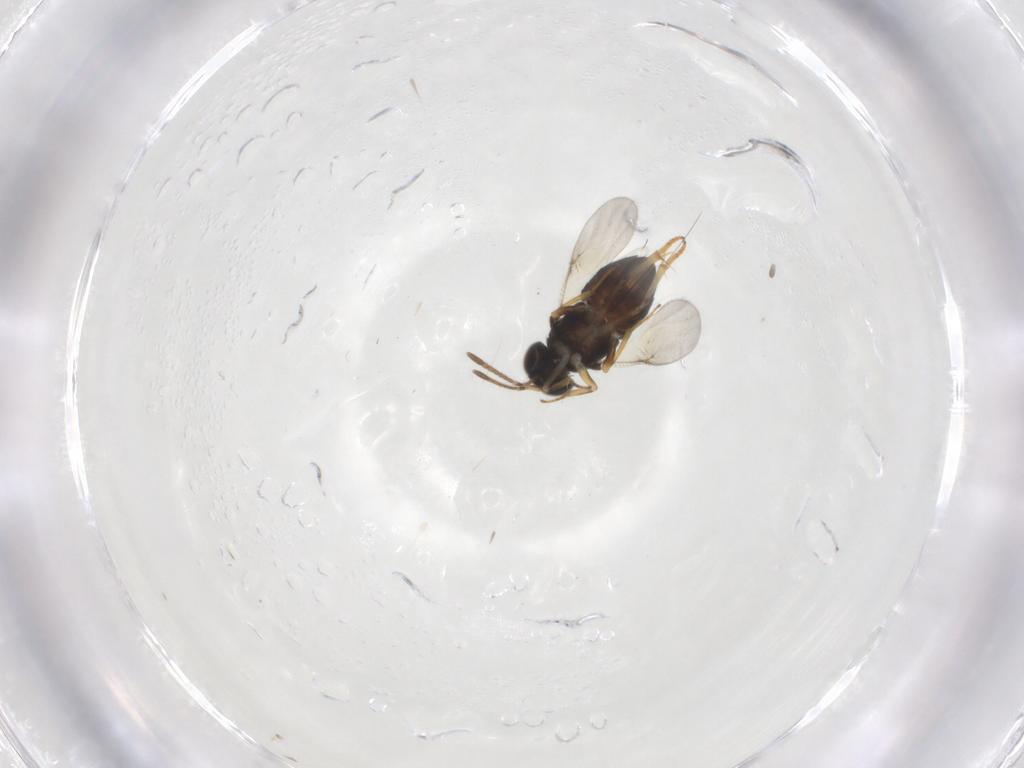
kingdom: Animalia
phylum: Arthropoda
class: Insecta
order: Hymenoptera
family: Encyrtidae
